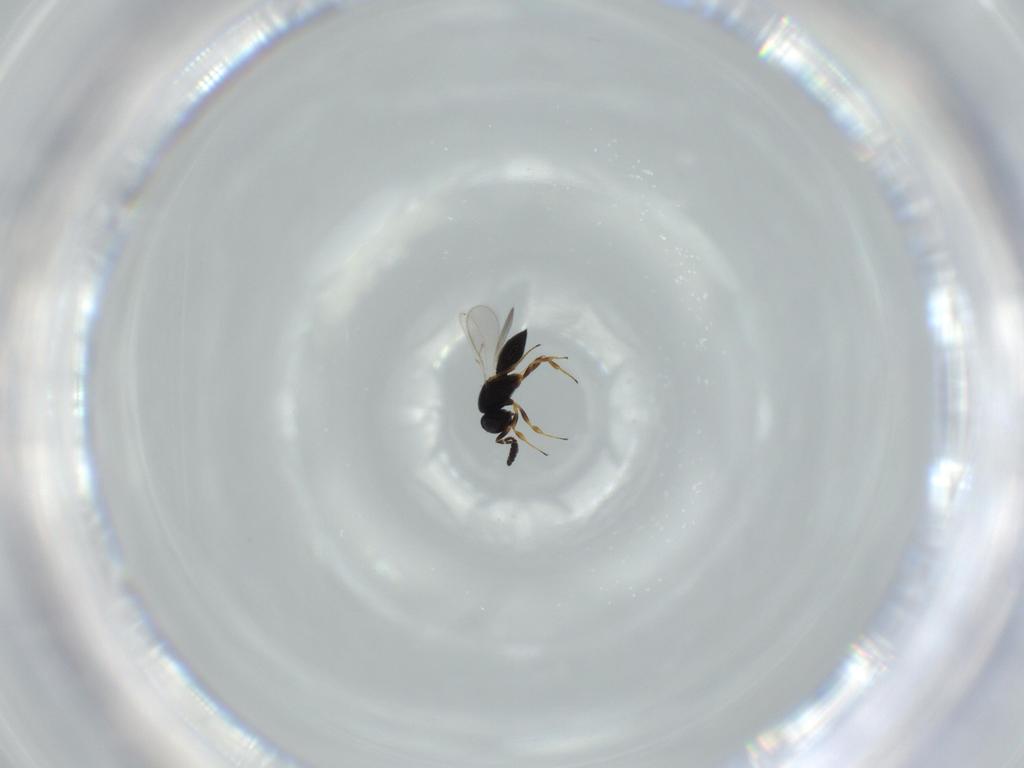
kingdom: Animalia
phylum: Arthropoda
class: Insecta
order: Hymenoptera
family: Scelionidae
